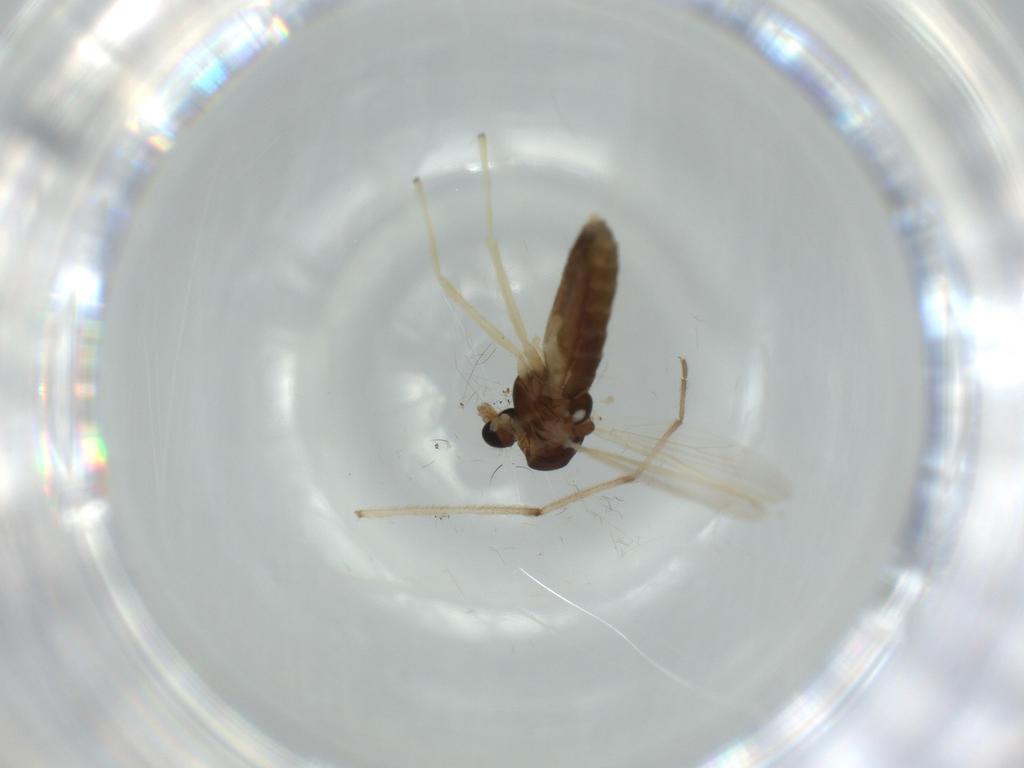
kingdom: Animalia
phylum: Arthropoda
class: Insecta
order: Diptera
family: Chironomidae
